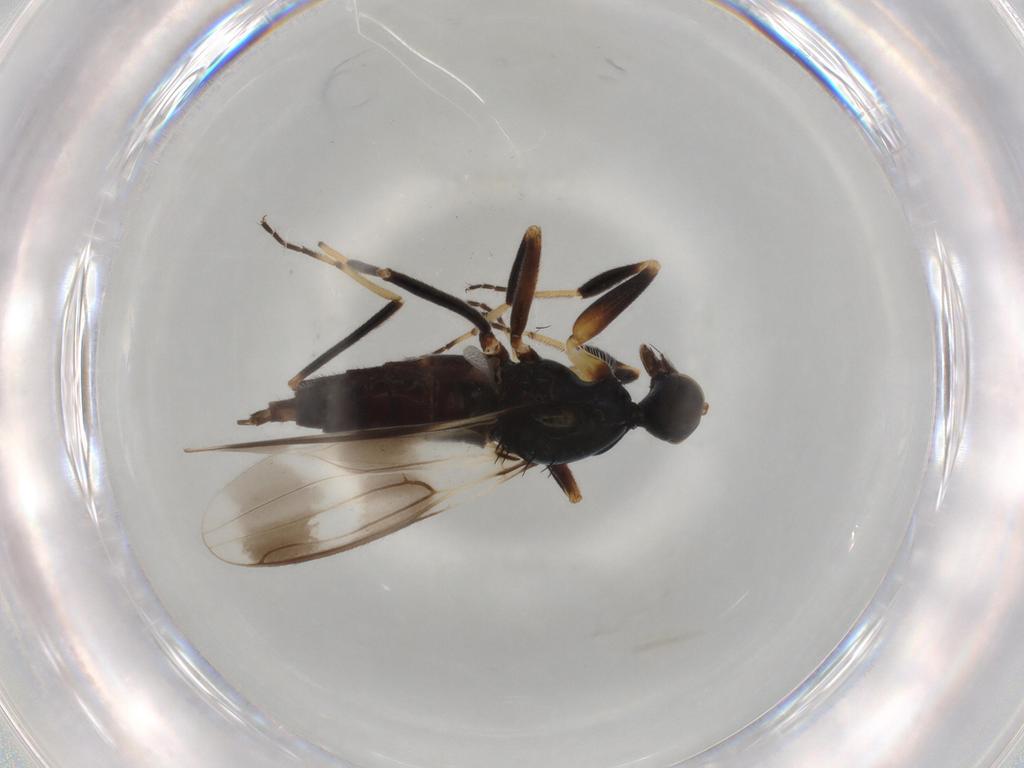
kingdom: Animalia
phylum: Arthropoda
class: Insecta
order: Diptera
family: Hybotidae
